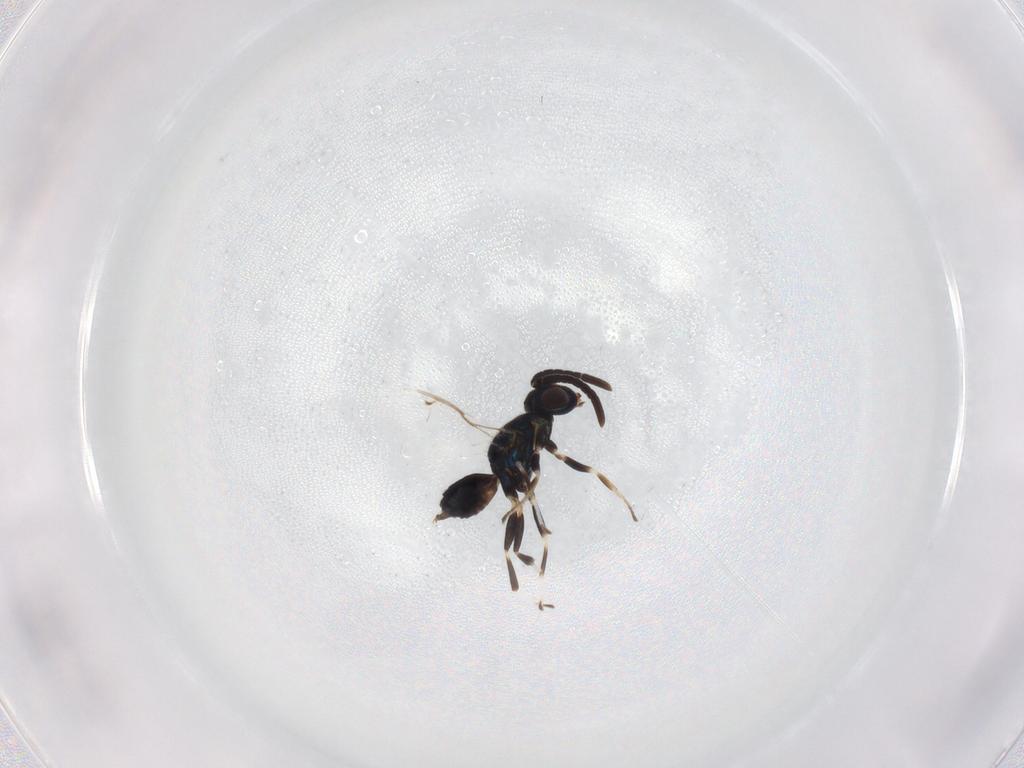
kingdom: Animalia
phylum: Arthropoda
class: Insecta
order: Hymenoptera
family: Eupelmidae
